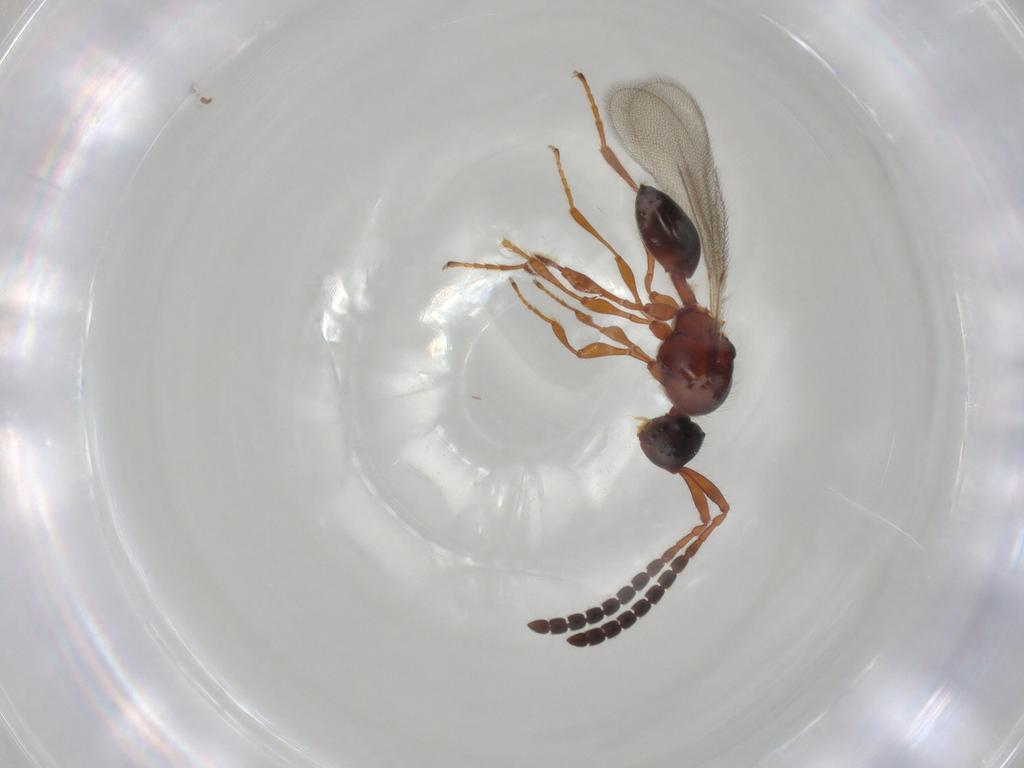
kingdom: Animalia
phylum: Arthropoda
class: Insecta
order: Hymenoptera
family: Diapriidae
